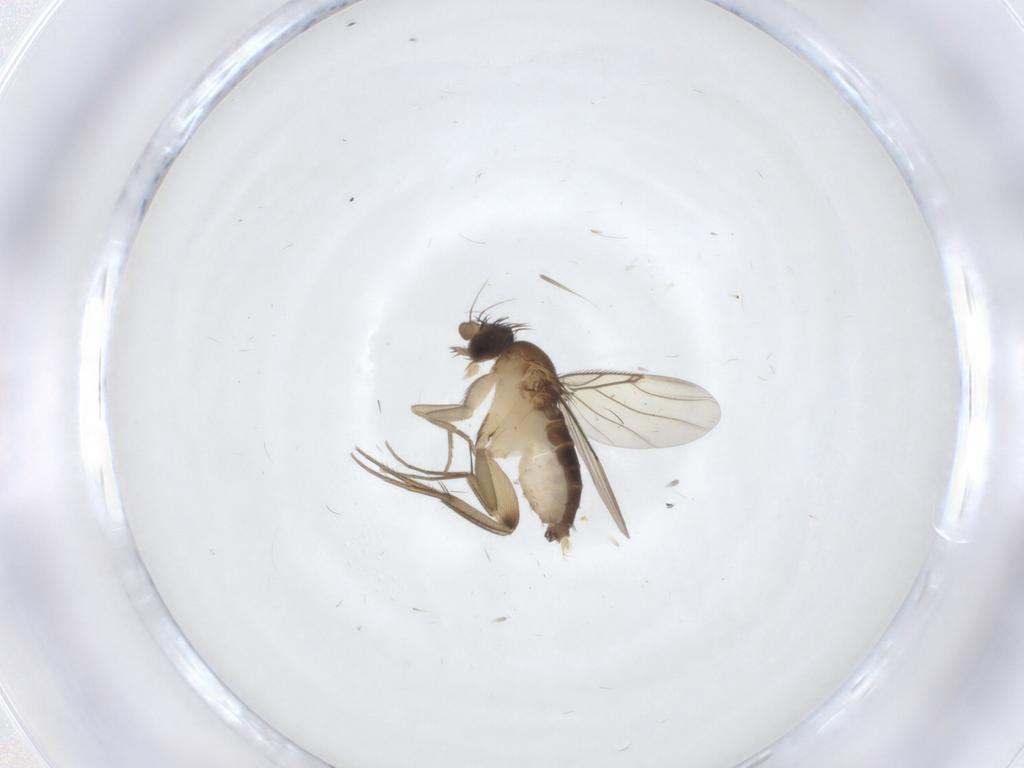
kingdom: Animalia
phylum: Arthropoda
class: Insecta
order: Diptera
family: Phoridae
